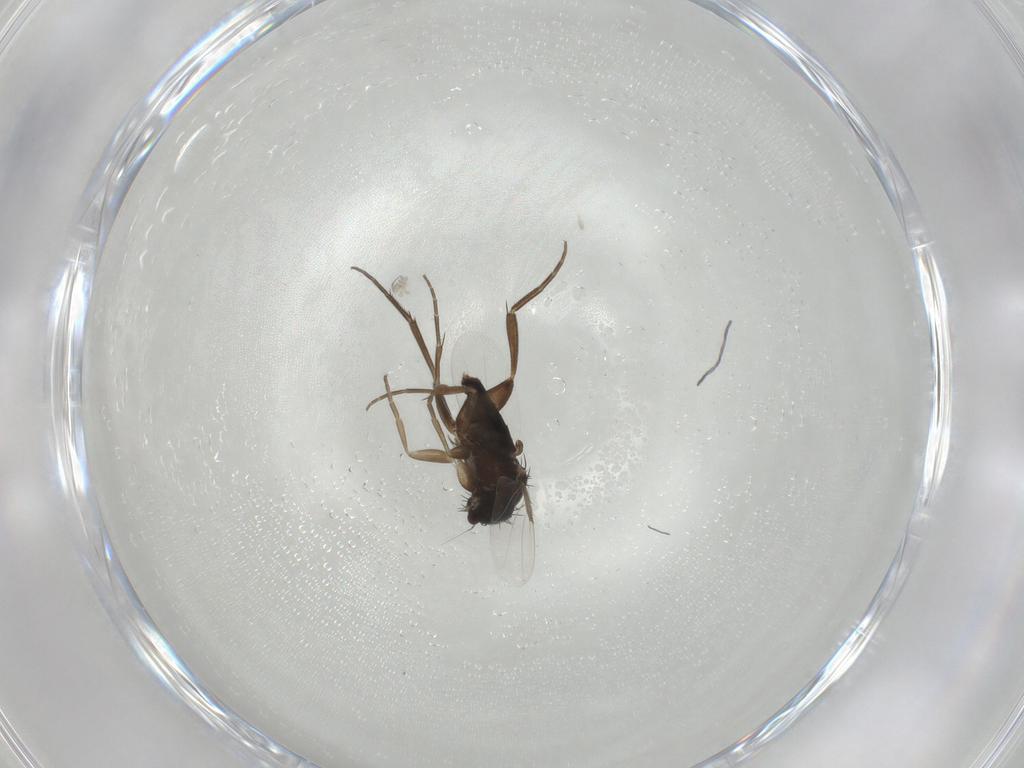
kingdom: Animalia
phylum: Arthropoda
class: Insecta
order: Diptera
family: Phoridae
